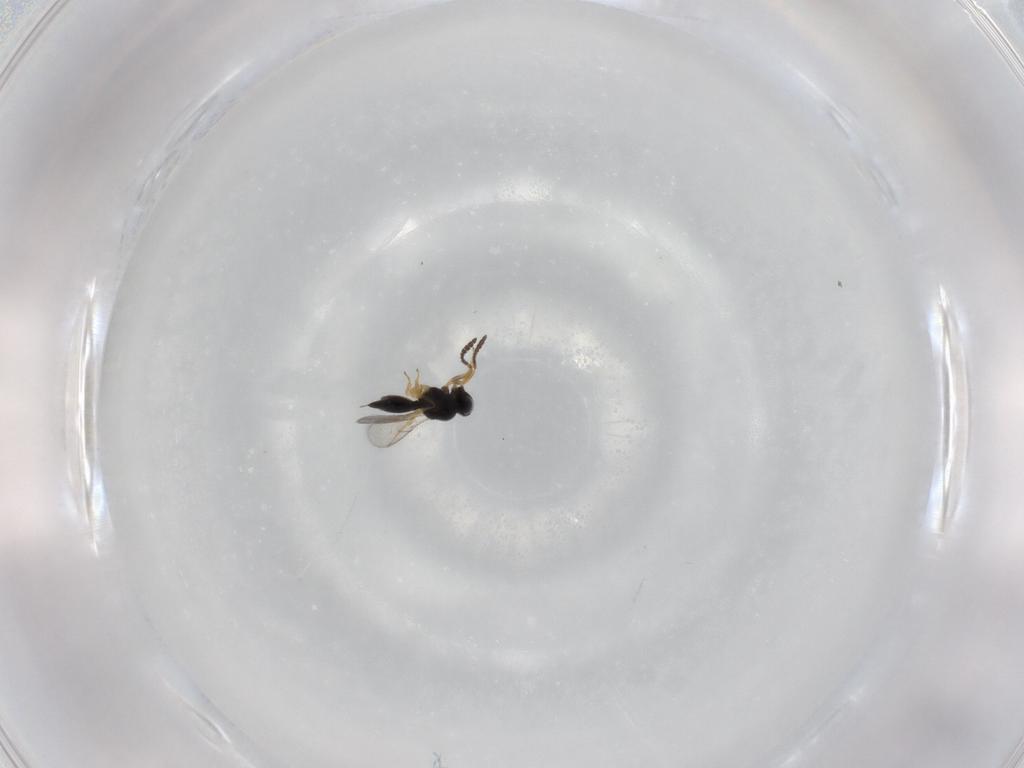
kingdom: Animalia
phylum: Arthropoda
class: Insecta
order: Hymenoptera
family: Scelionidae
